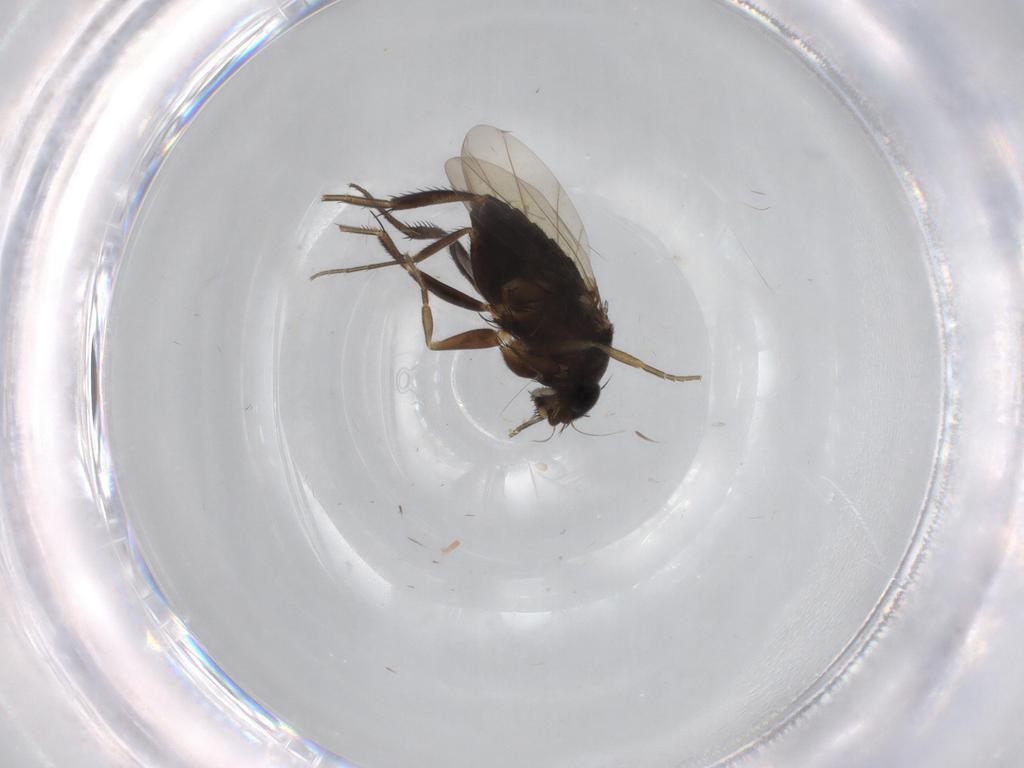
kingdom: Animalia
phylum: Arthropoda
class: Insecta
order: Diptera
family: Phoridae
